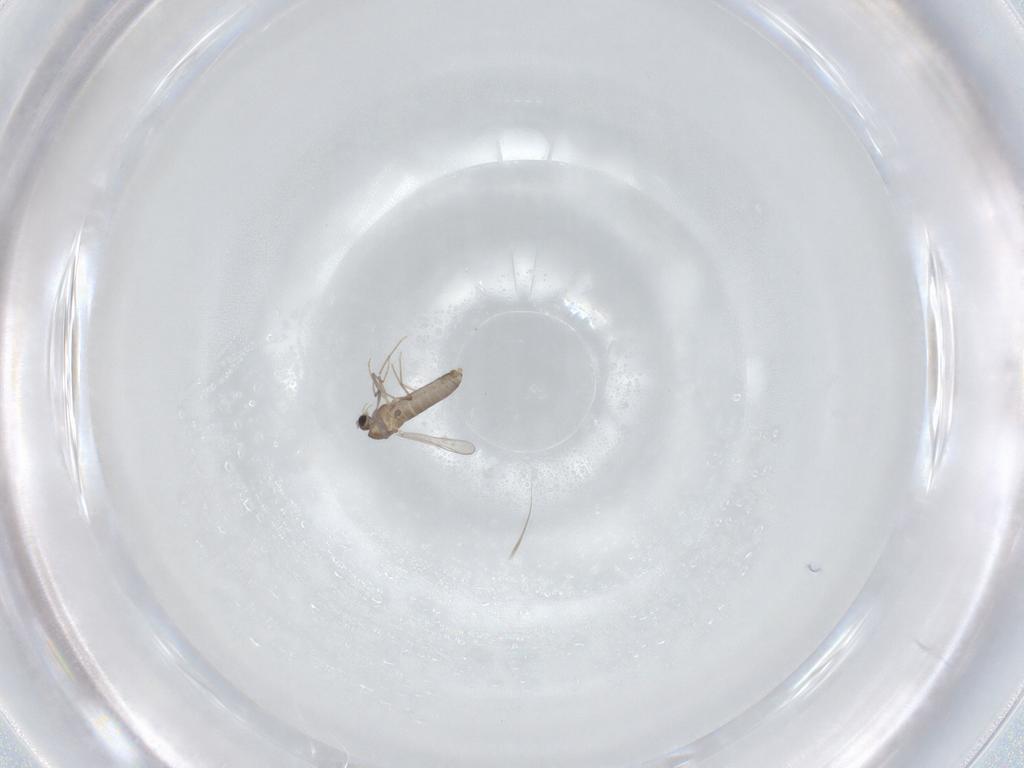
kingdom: Animalia
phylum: Arthropoda
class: Insecta
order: Diptera
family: Chironomidae
